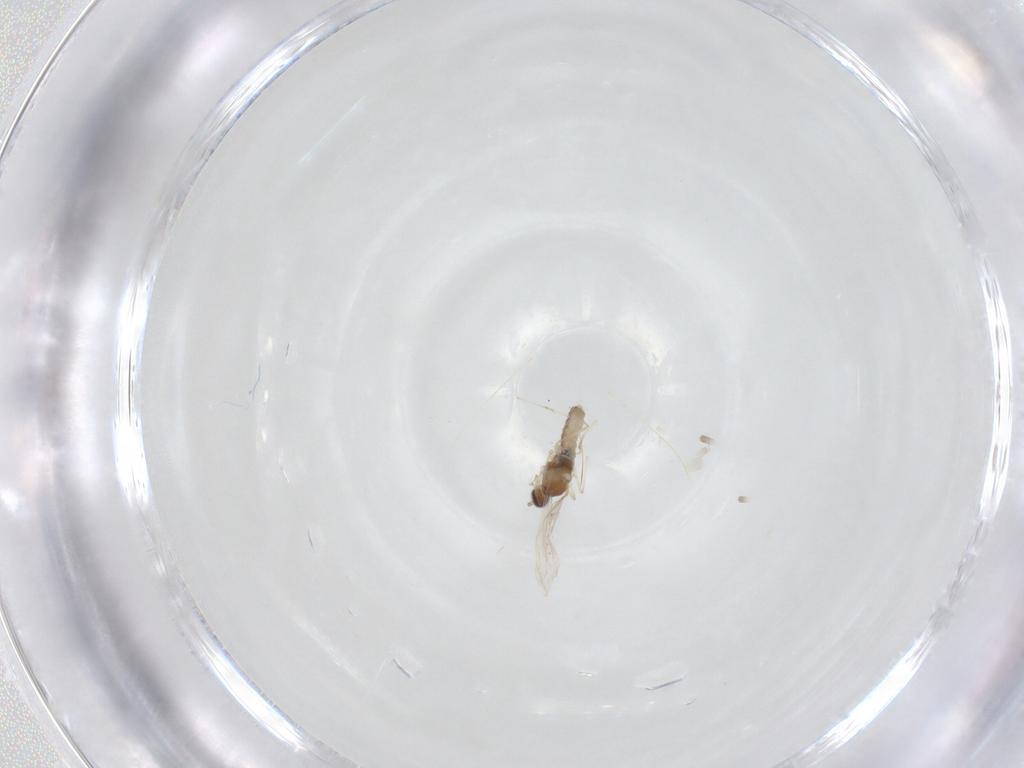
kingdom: Animalia
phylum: Arthropoda
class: Insecta
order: Diptera
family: Cecidomyiidae
